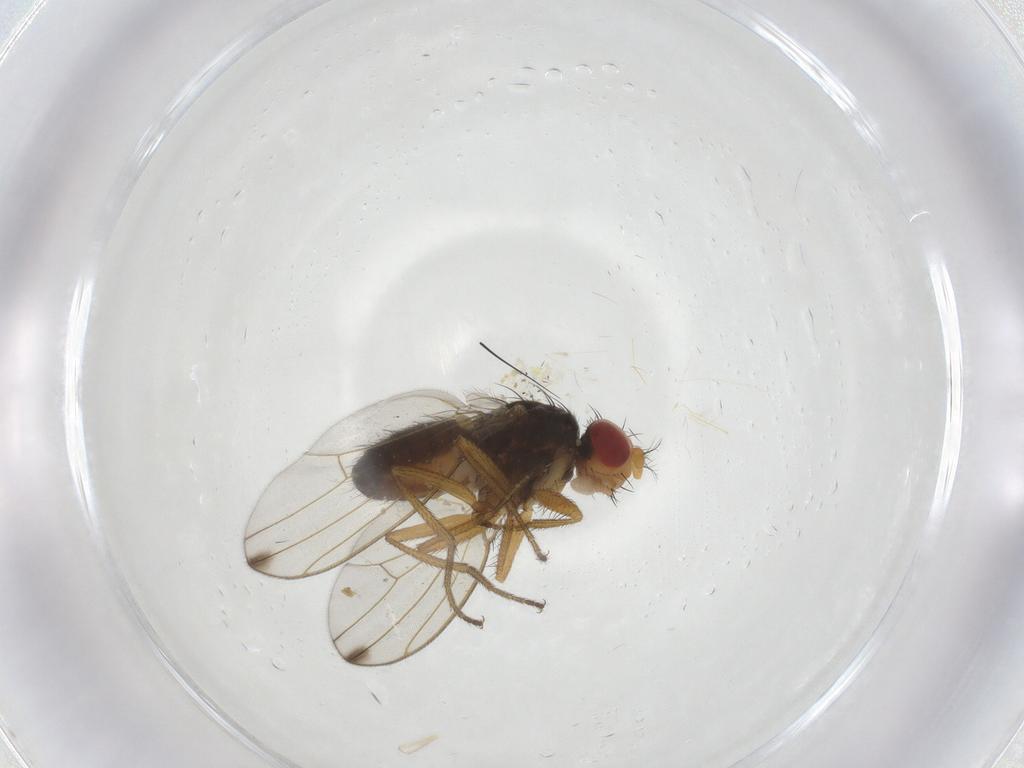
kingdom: Animalia
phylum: Arthropoda
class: Insecta
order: Diptera
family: Drosophilidae
